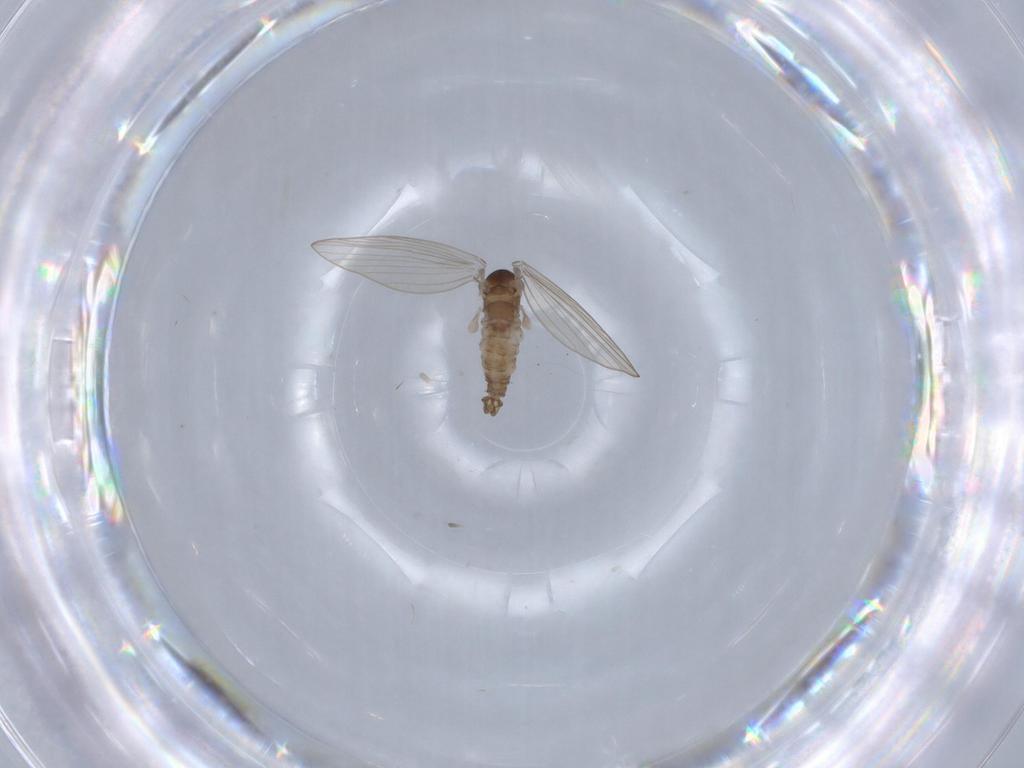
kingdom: Animalia
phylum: Arthropoda
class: Insecta
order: Diptera
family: Psychodidae
